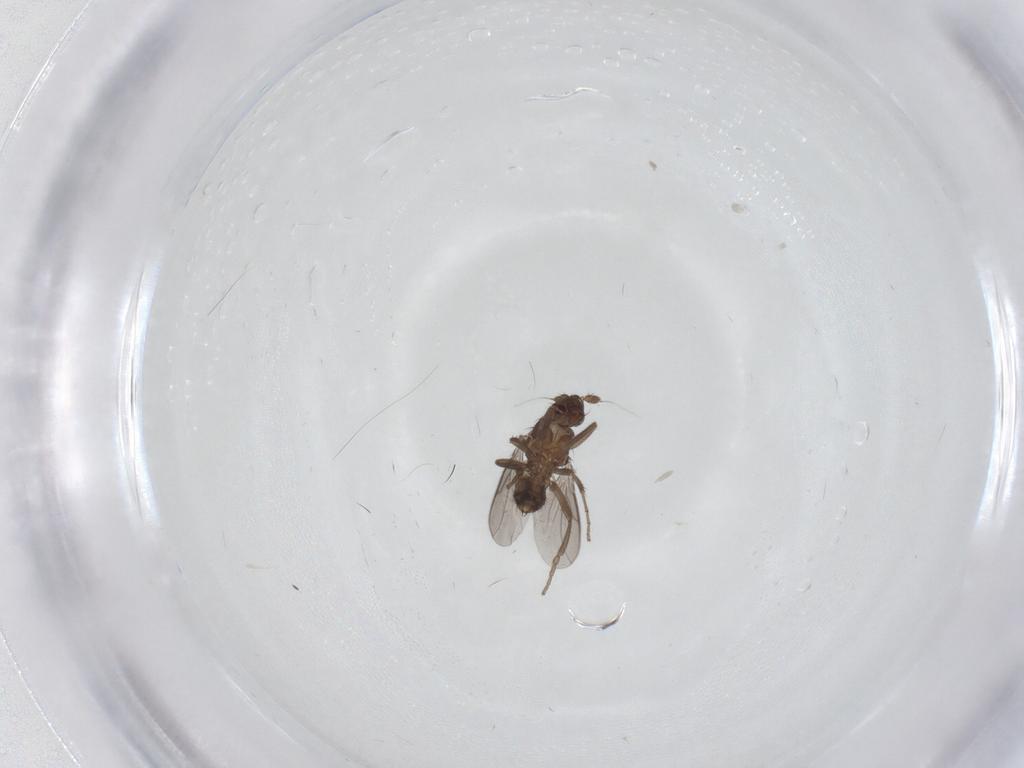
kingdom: Animalia
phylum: Arthropoda
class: Insecta
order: Diptera
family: Sphaeroceridae
